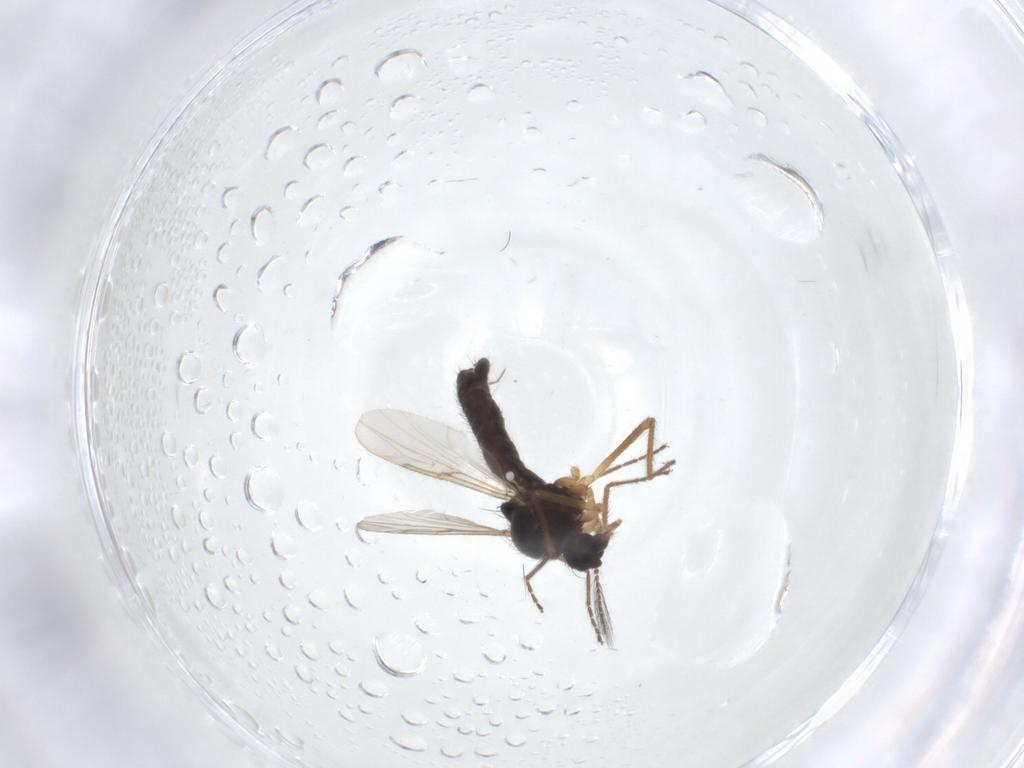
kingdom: Animalia
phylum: Arthropoda
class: Insecta
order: Diptera
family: Ceratopogonidae
